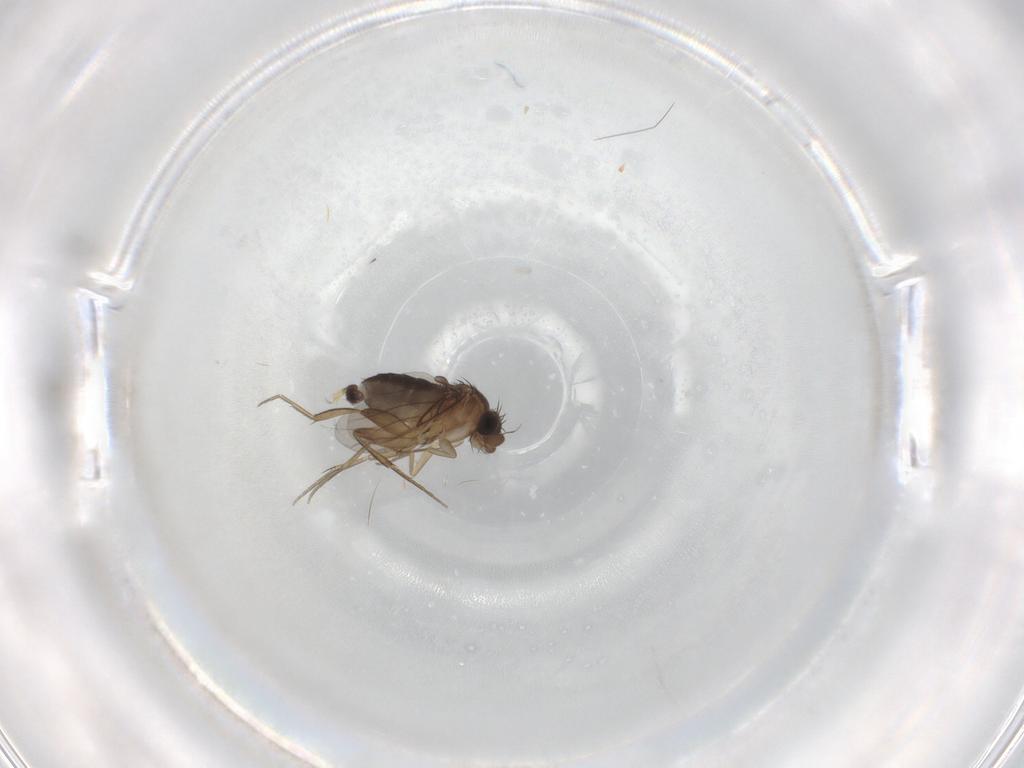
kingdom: Animalia
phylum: Arthropoda
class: Insecta
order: Diptera
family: Phoridae
